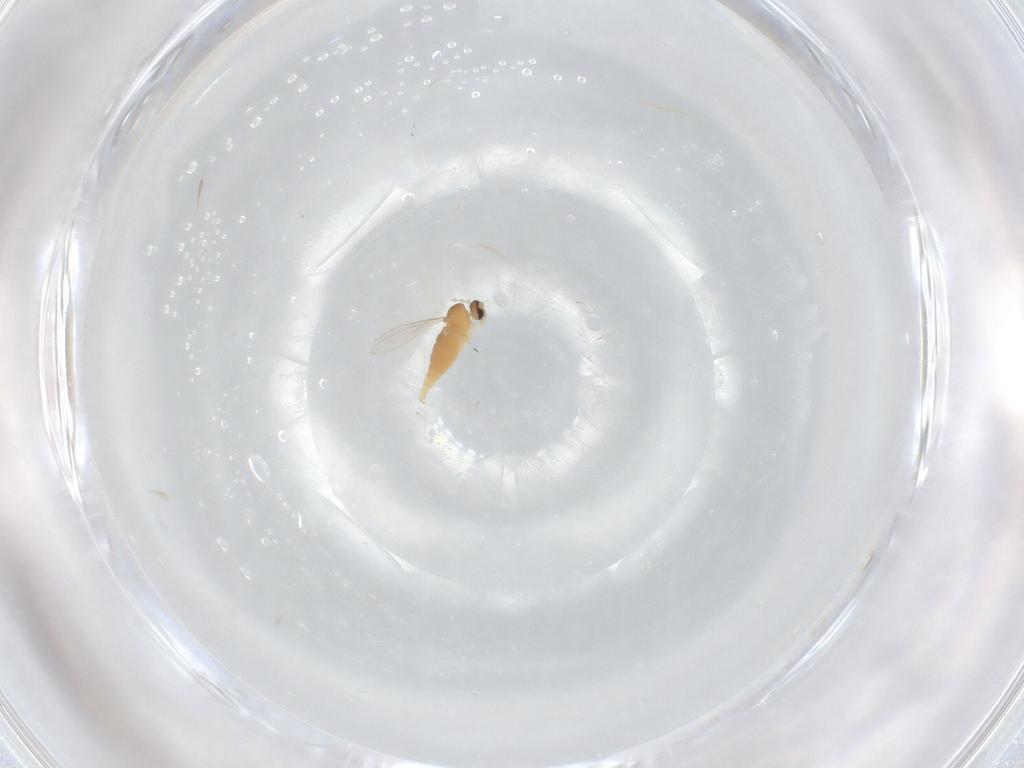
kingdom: Animalia
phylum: Arthropoda
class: Insecta
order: Diptera
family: Cecidomyiidae
